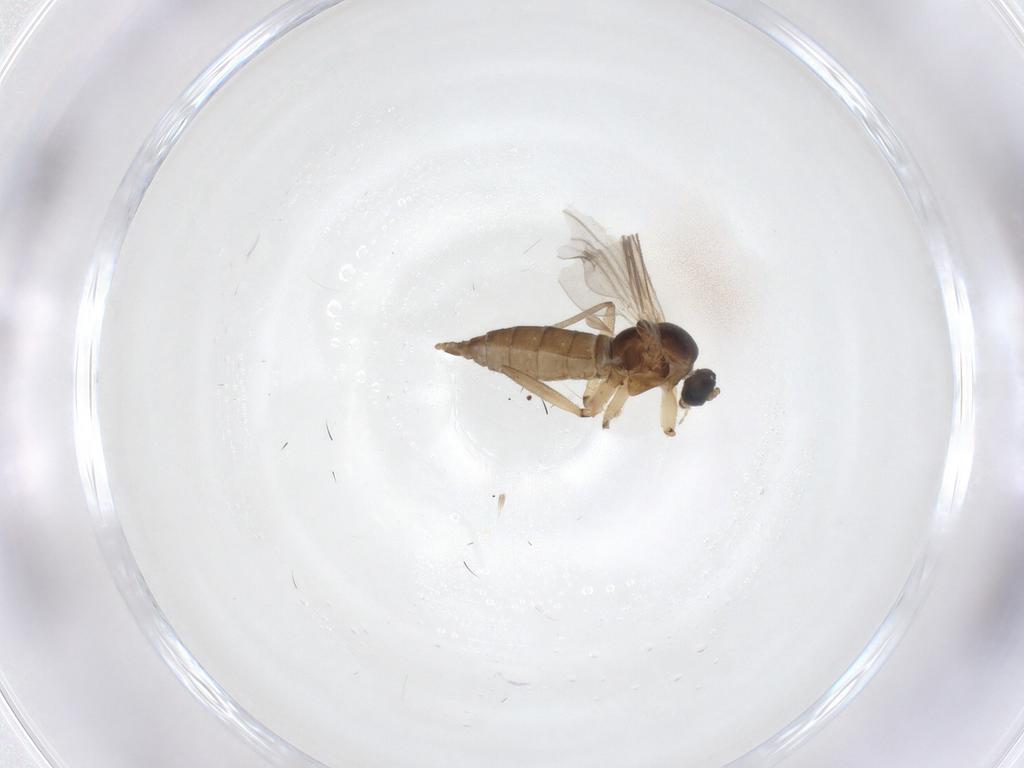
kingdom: Animalia
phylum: Arthropoda
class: Insecta
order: Diptera
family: Sciaridae
